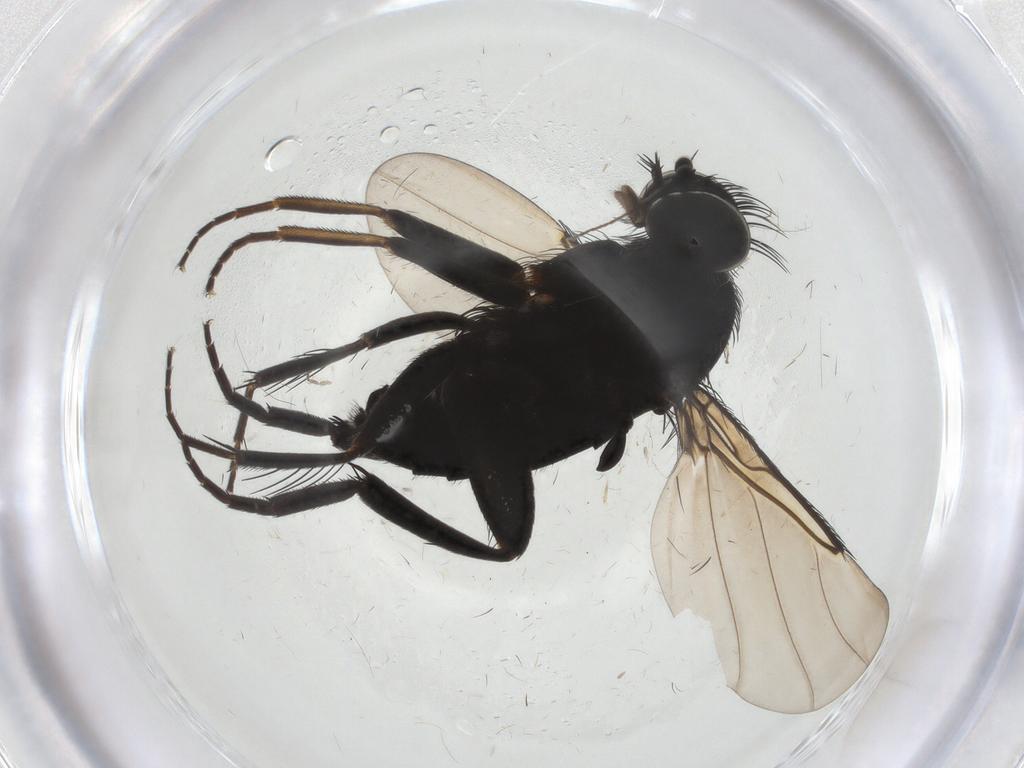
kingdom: Animalia
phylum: Arthropoda
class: Insecta
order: Diptera
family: Phoridae
